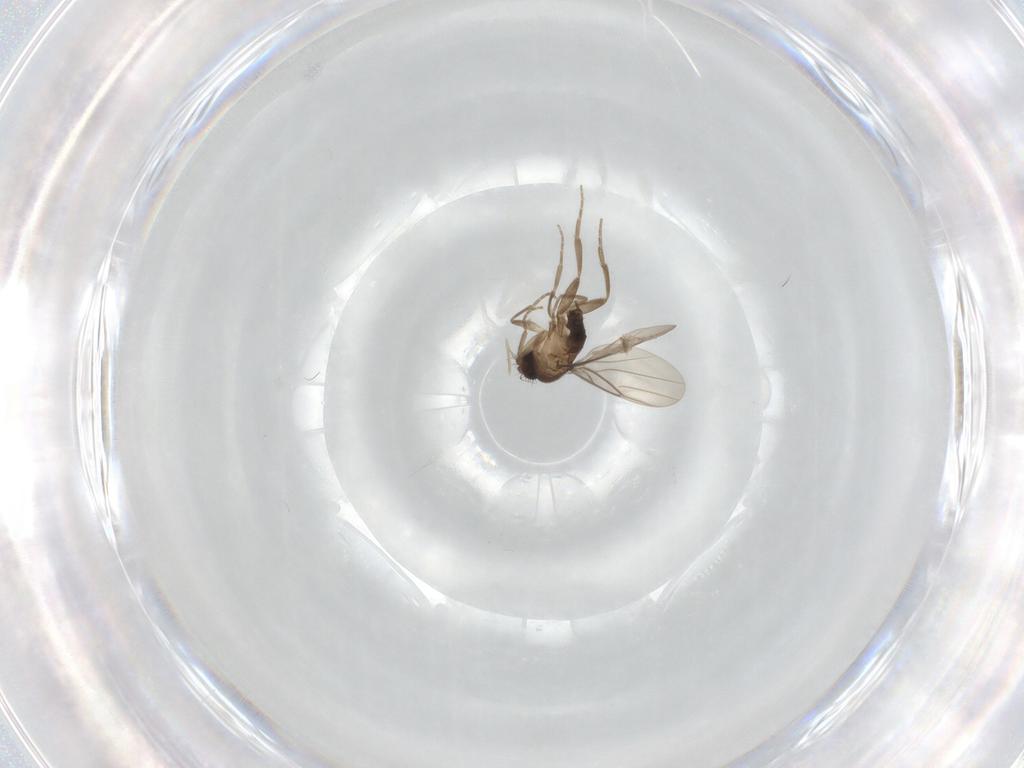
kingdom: Animalia
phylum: Arthropoda
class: Insecta
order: Diptera
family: Phoridae
